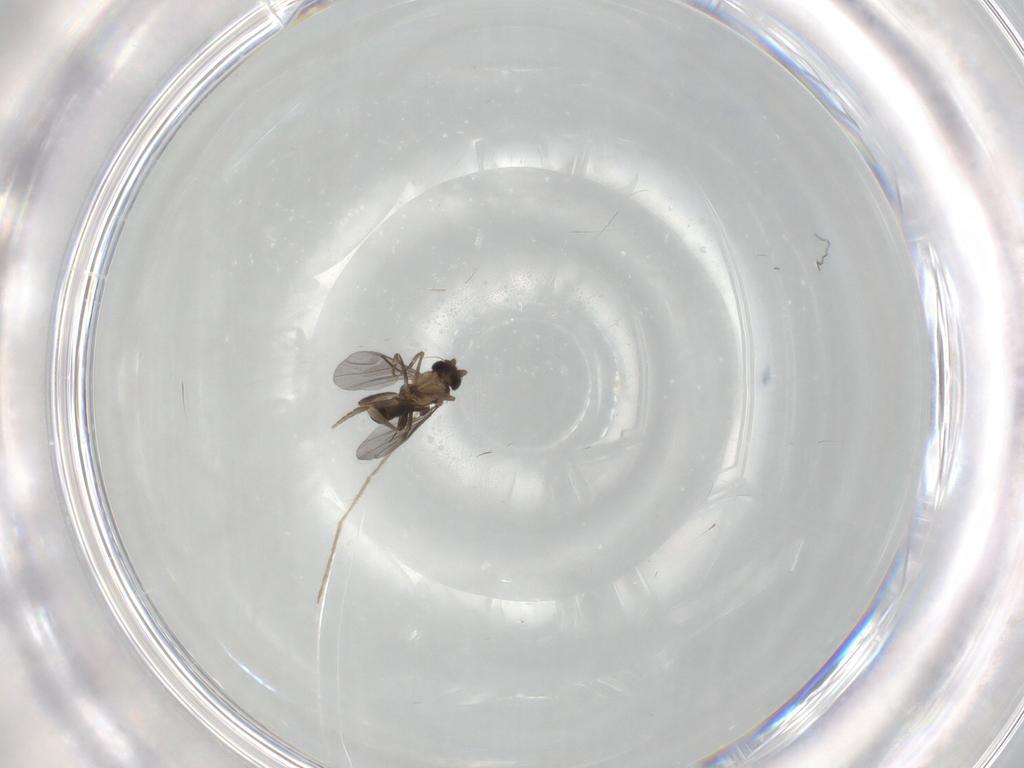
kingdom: Animalia
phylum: Arthropoda
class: Insecta
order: Diptera
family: Chironomidae
